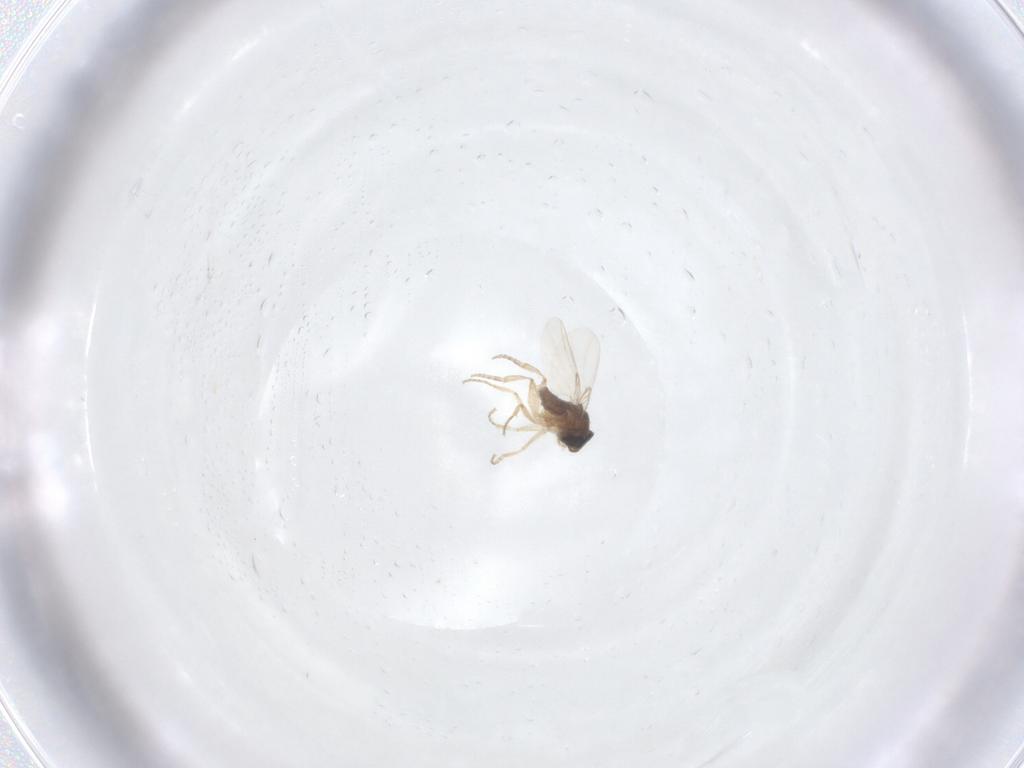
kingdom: Animalia
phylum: Arthropoda
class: Insecta
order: Diptera
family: Phoridae
